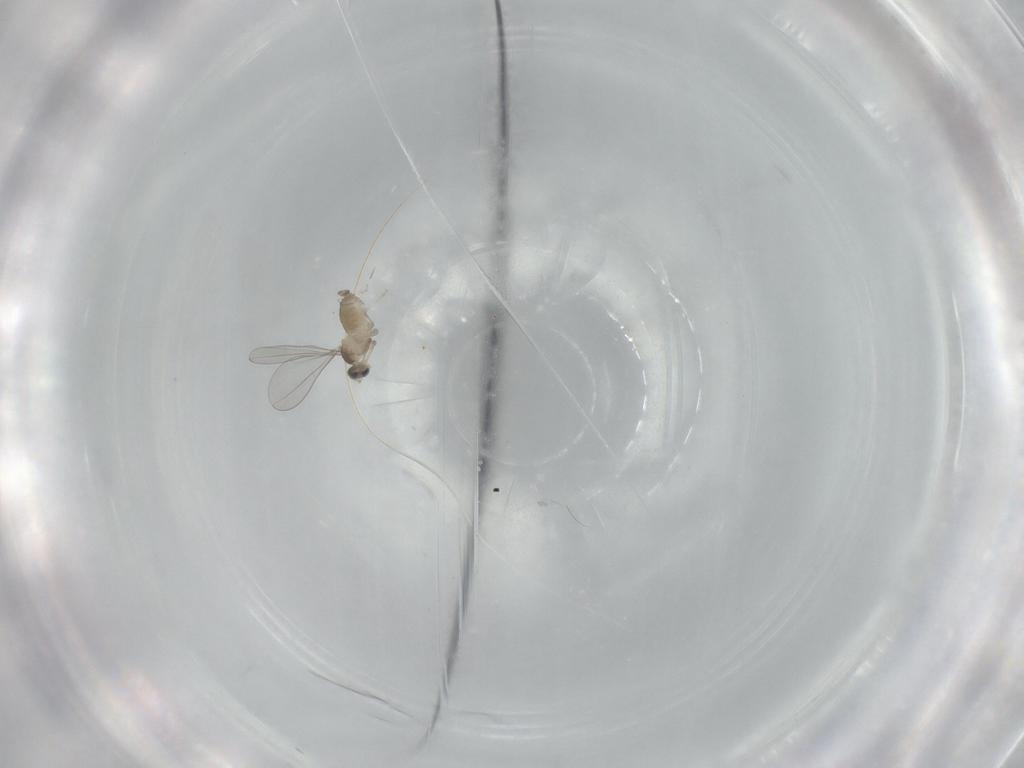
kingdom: Animalia
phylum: Arthropoda
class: Insecta
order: Diptera
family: Cecidomyiidae
